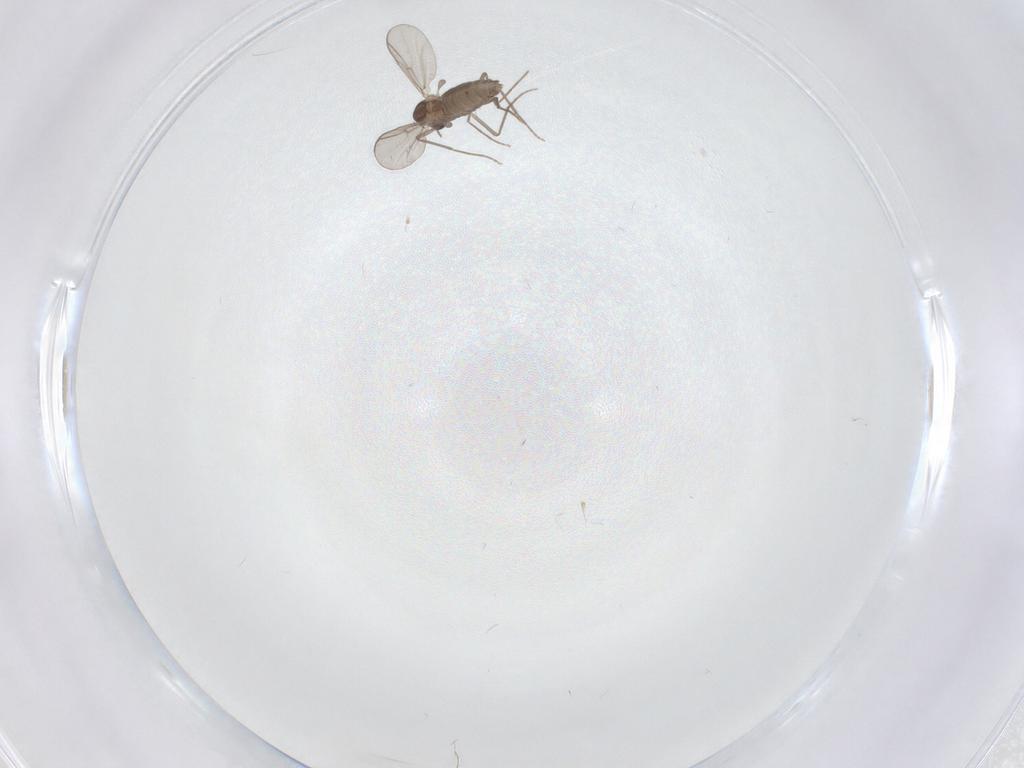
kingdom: Animalia
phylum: Arthropoda
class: Insecta
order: Diptera
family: Chironomidae
